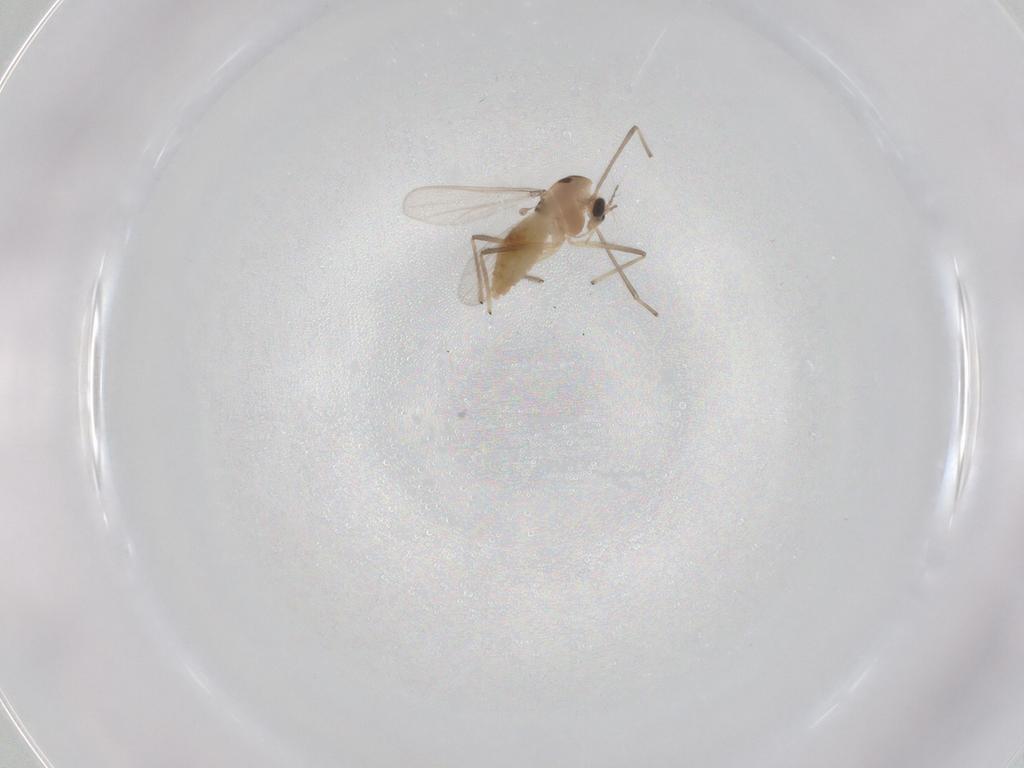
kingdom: Animalia
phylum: Arthropoda
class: Insecta
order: Diptera
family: Chironomidae
